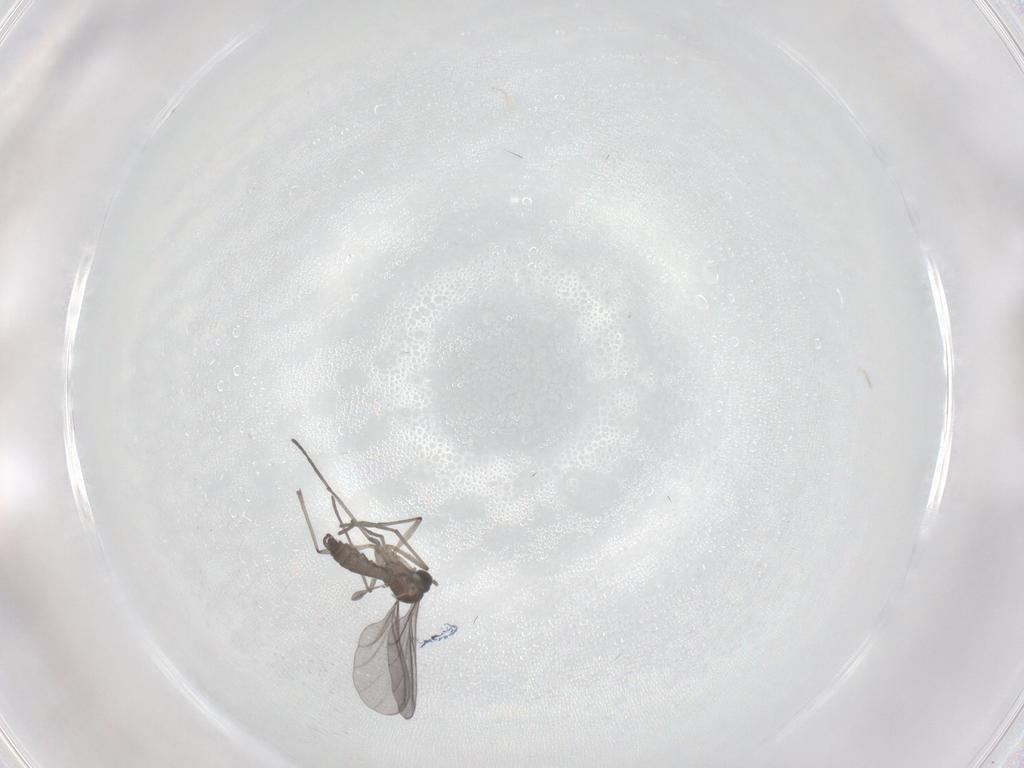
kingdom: Animalia
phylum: Arthropoda
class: Insecta
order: Diptera
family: Sciaridae
